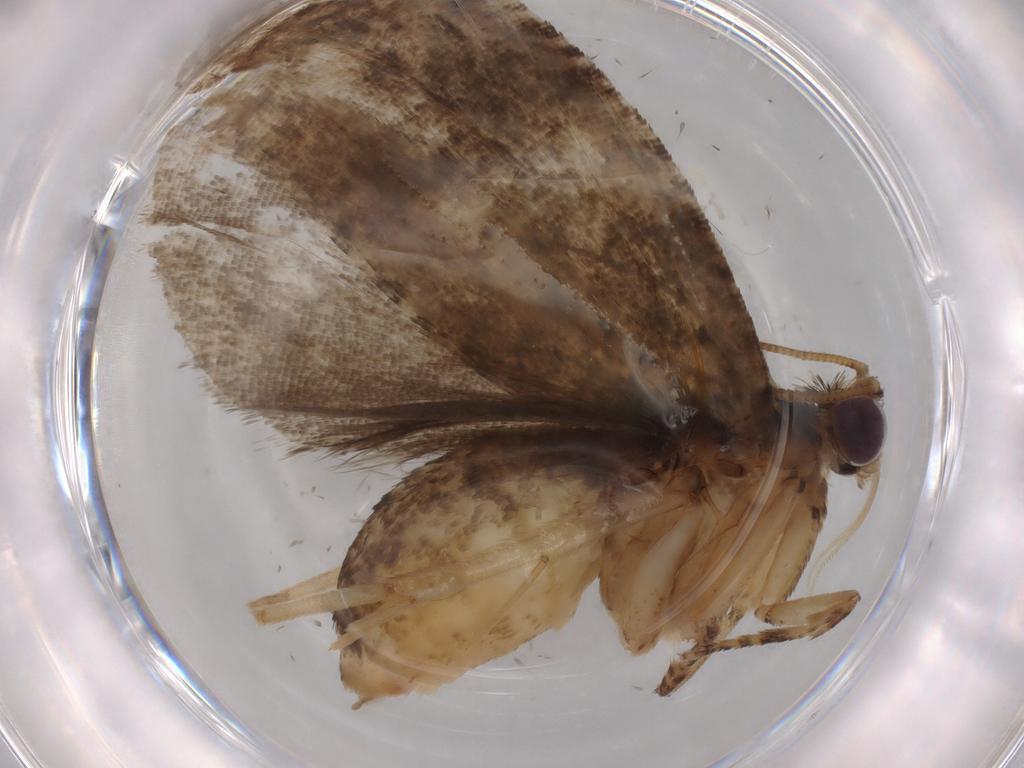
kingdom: Animalia
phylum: Arthropoda
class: Insecta
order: Lepidoptera
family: Tortricidae
